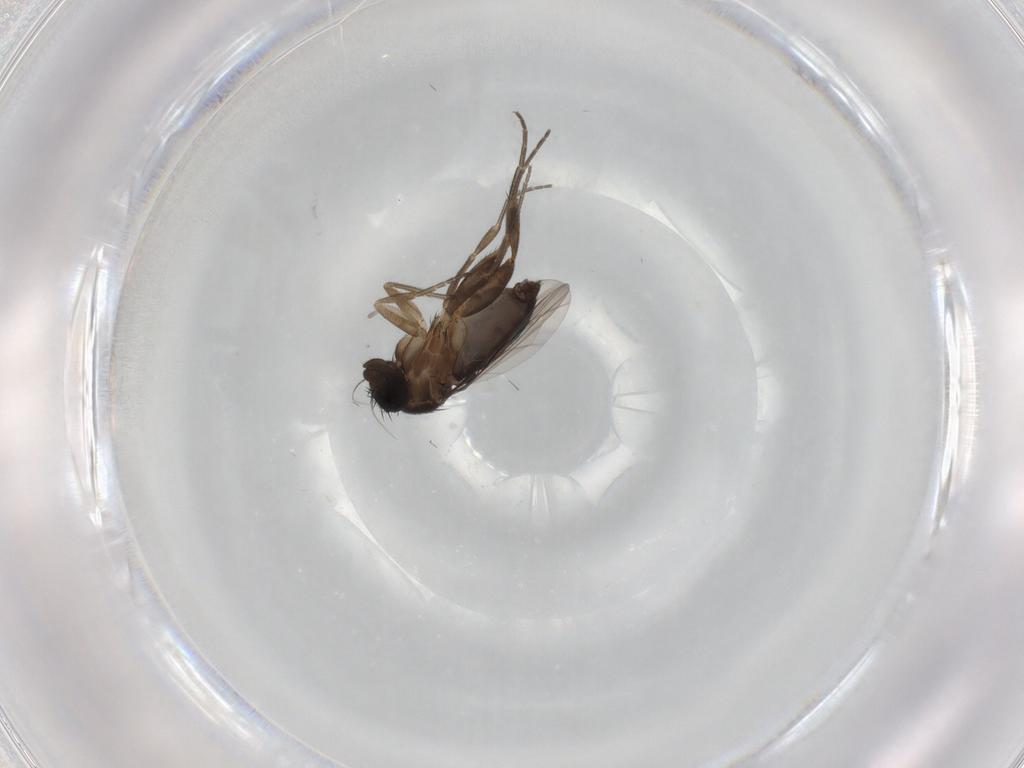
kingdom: Animalia
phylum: Arthropoda
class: Insecta
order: Diptera
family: Phoridae
